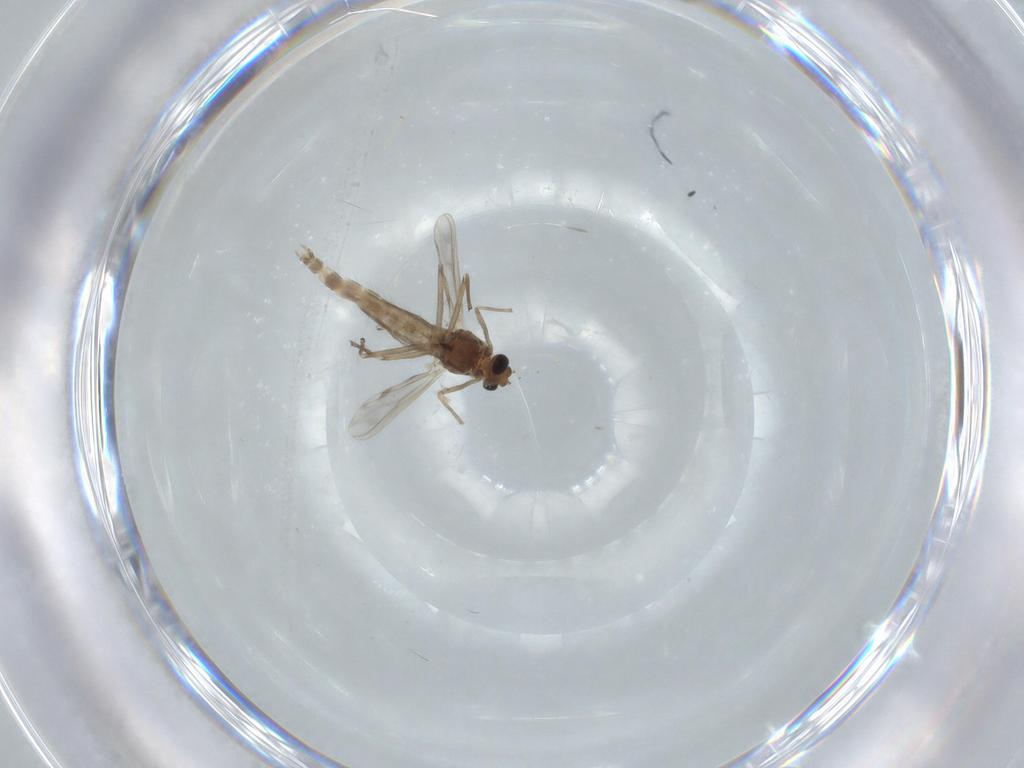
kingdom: Animalia
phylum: Arthropoda
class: Insecta
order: Diptera
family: Chironomidae
